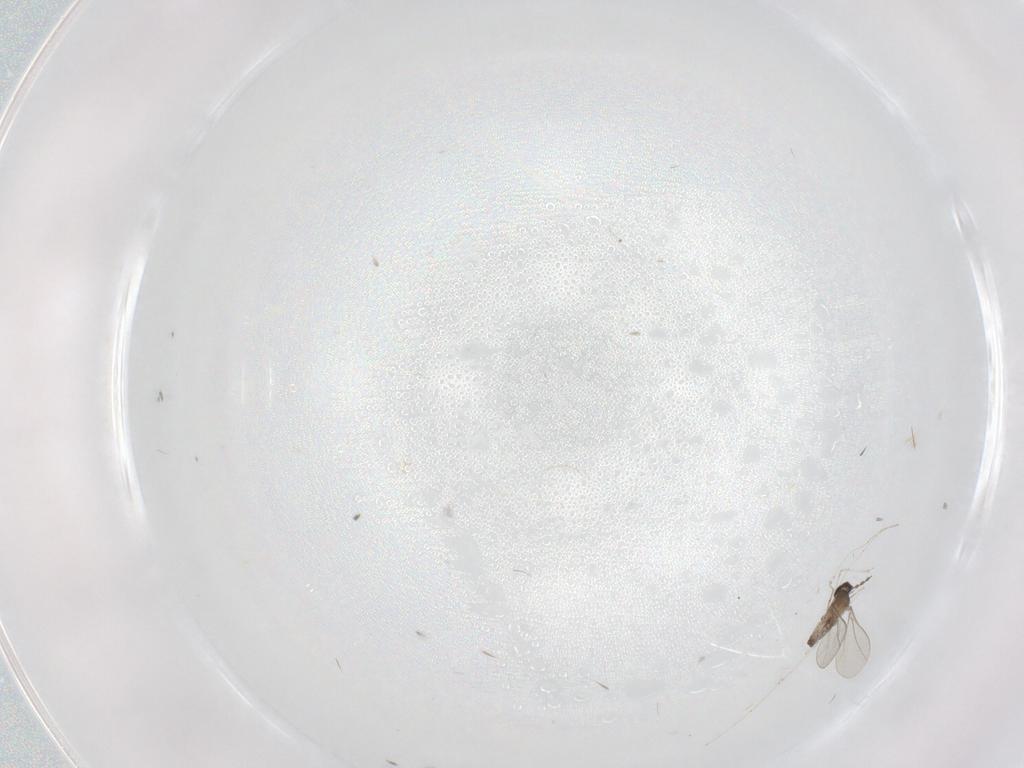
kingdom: Animalia
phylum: Arthropoda
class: Insecta
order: Diptera
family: Chironomidae
